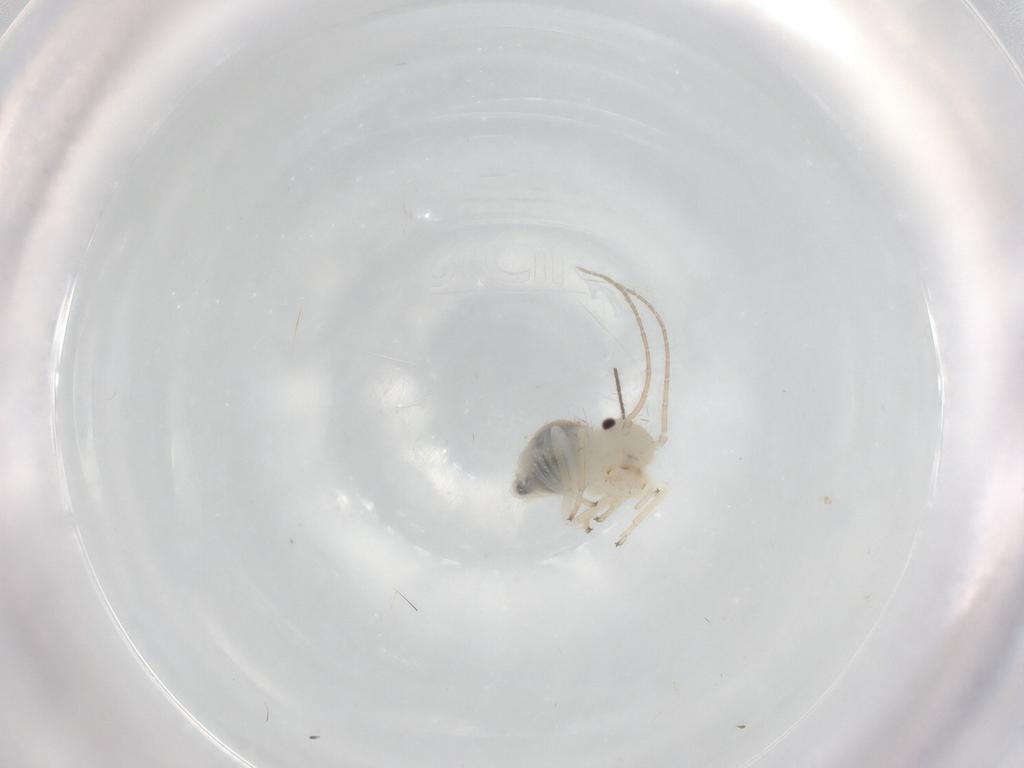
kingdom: Animalia
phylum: Arthropoda
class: Insecta
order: Psocodea
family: Philotarsidae
